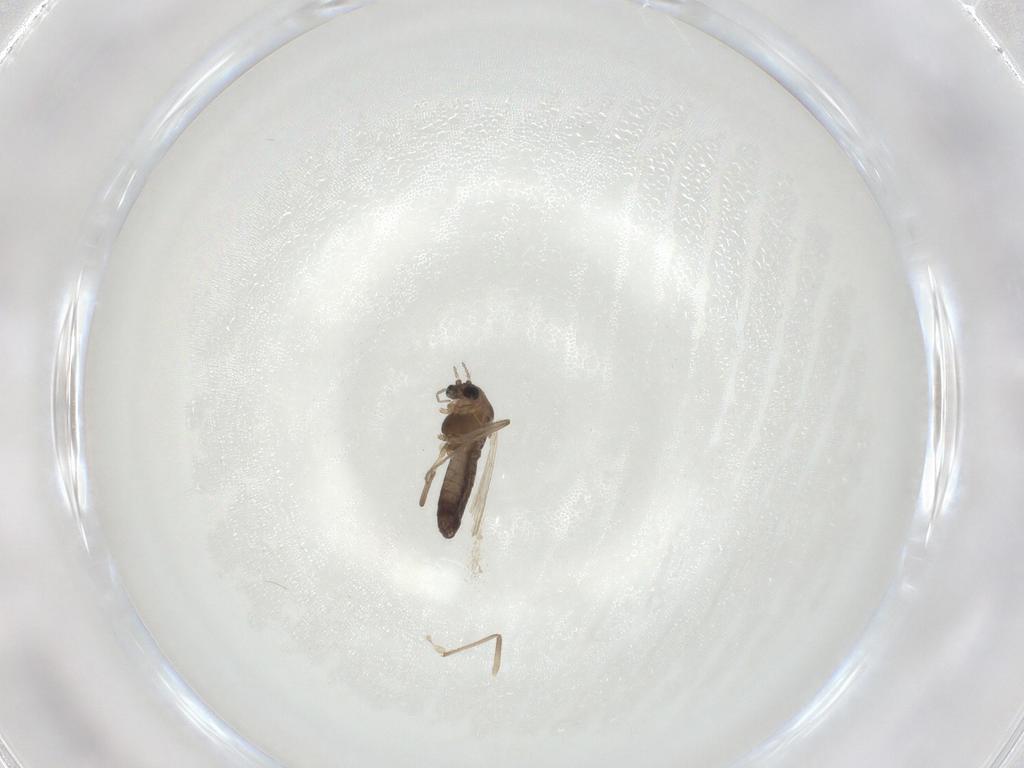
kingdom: Animalia
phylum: Arthropoda
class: Insecta
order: Diptera
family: Chironomidae
